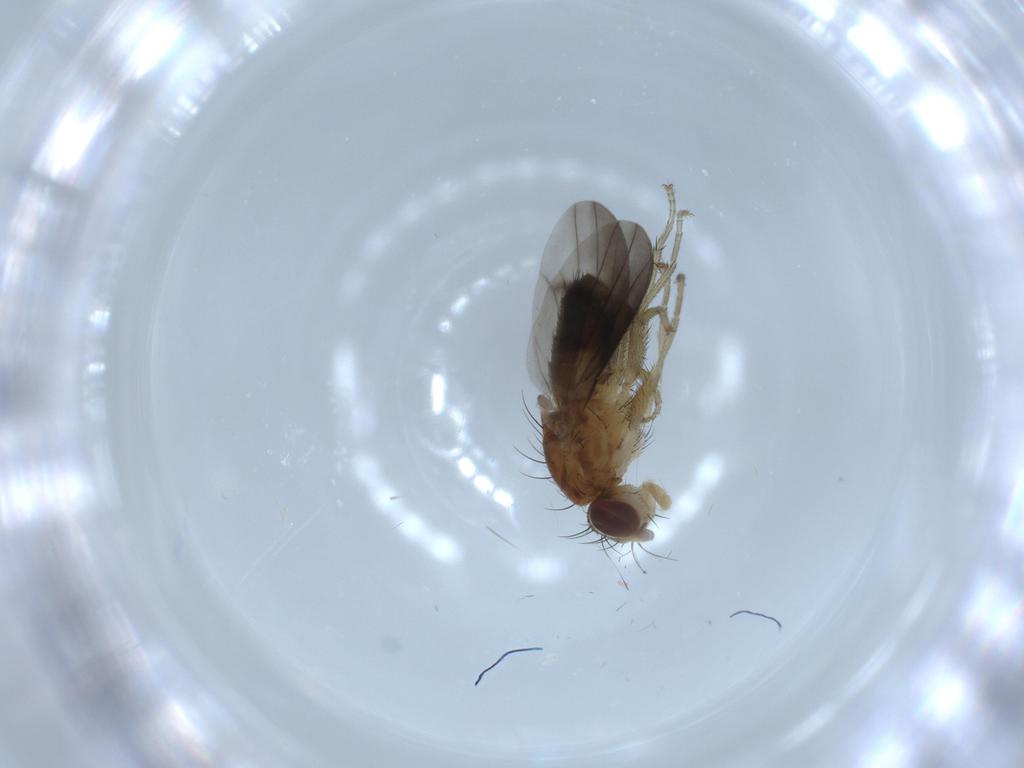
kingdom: Animalia
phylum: Arthropoda
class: Insecta
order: Diptera
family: Heleomyzidae
